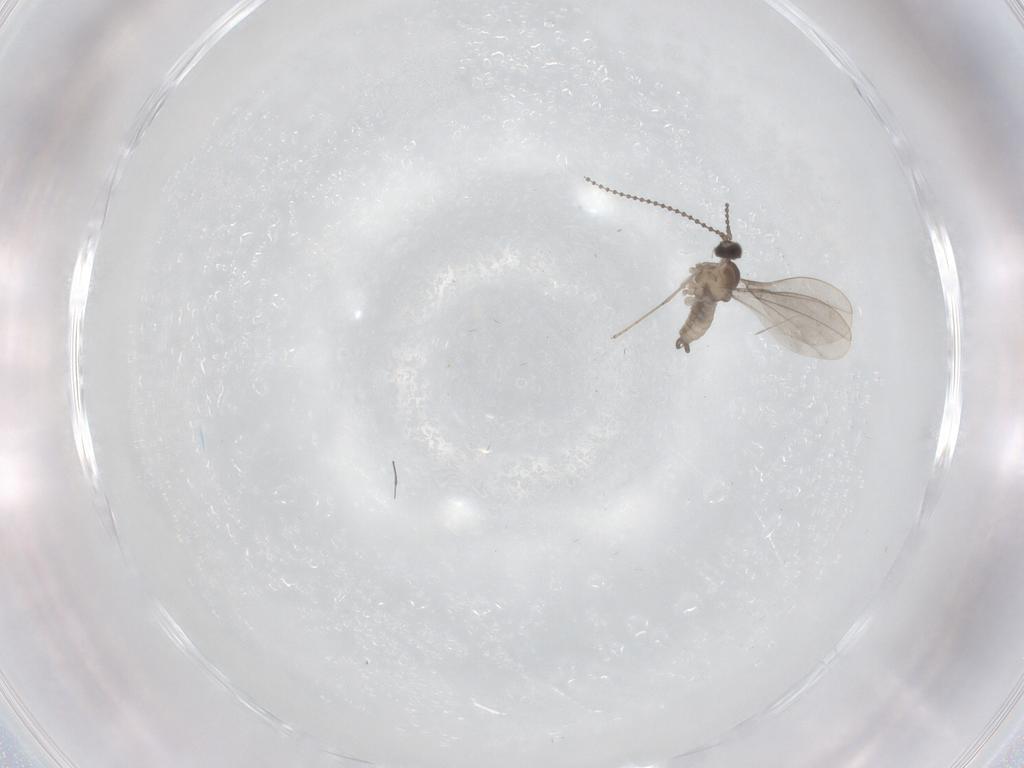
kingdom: Animalia
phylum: Arthropoda
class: Insecta
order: Diptera
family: Cecidomyiidae
